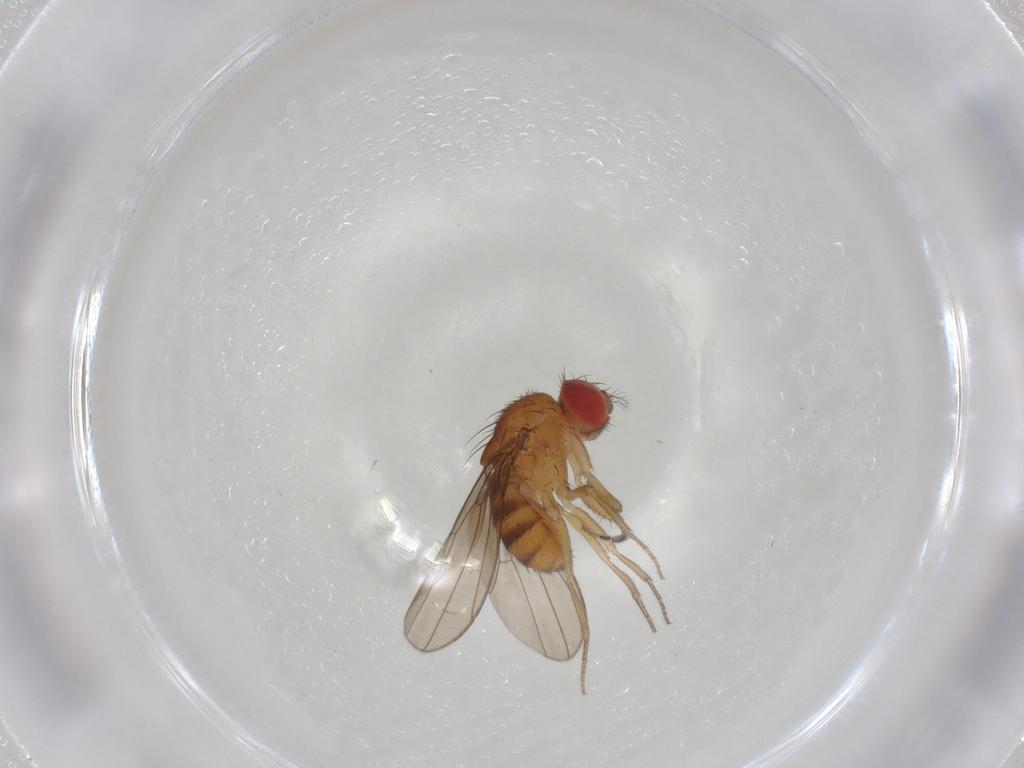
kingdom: Animalia
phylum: Arthropoda
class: Insecta
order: Diptera
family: Drosophilidae
